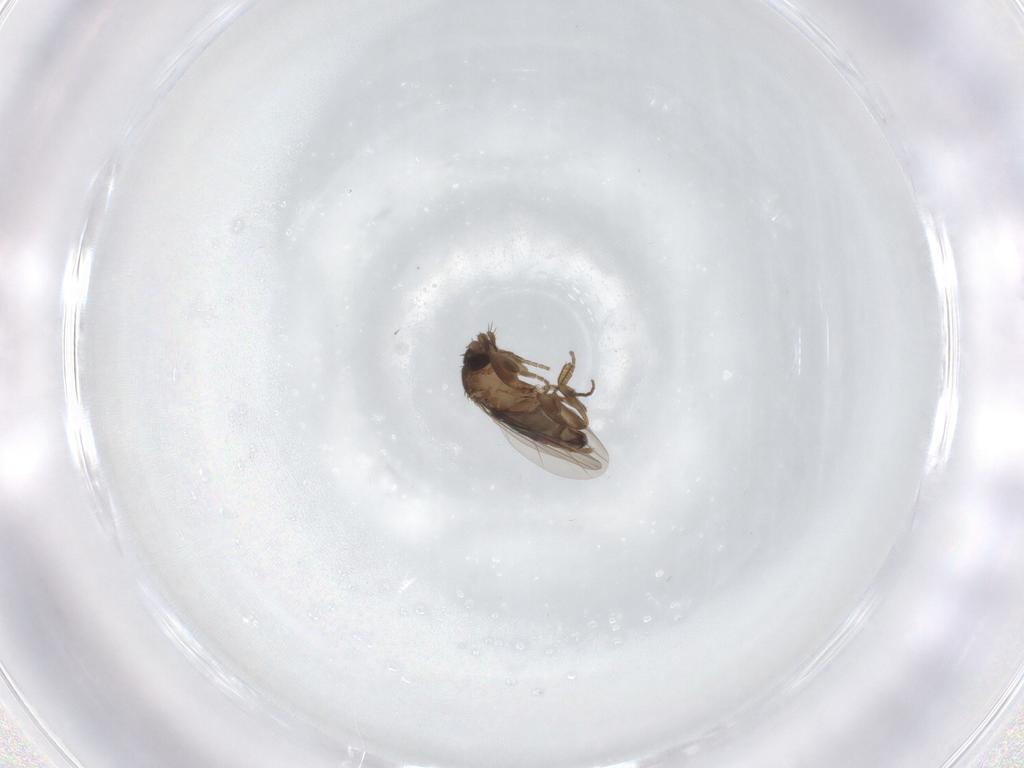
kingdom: Animalia
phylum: Arthropoda
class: Insecta
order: Diptera
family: Phoridae
